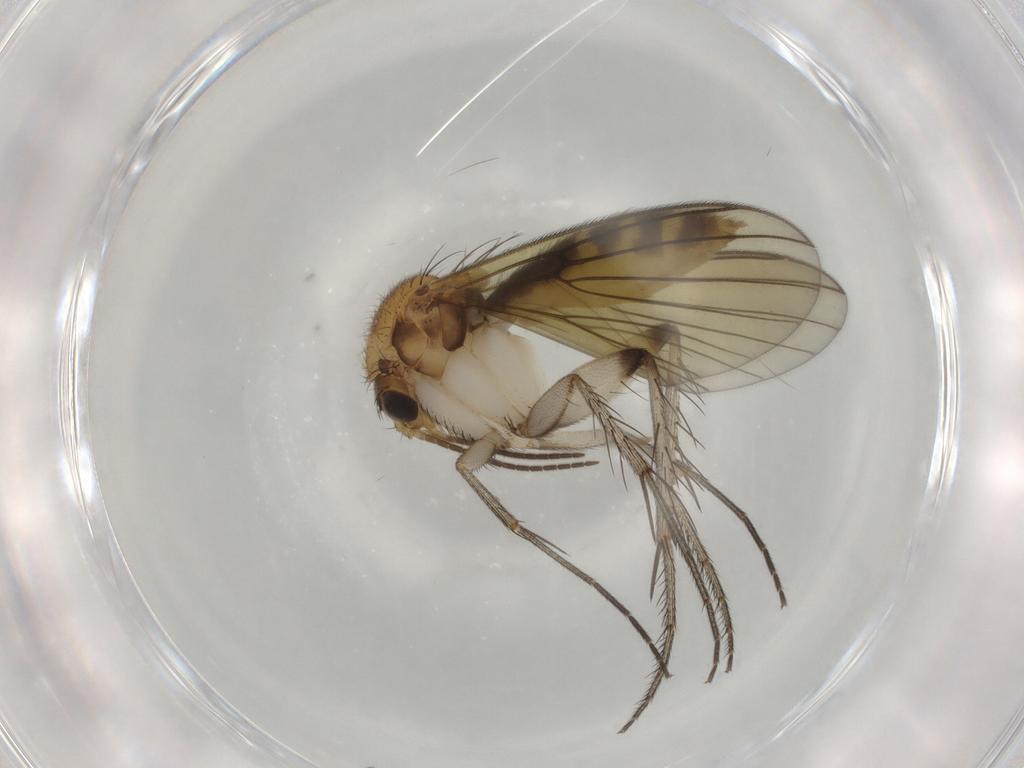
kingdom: Animalia
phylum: Arthropoda
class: Insecta
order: Diptera
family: Mycetophilidae
